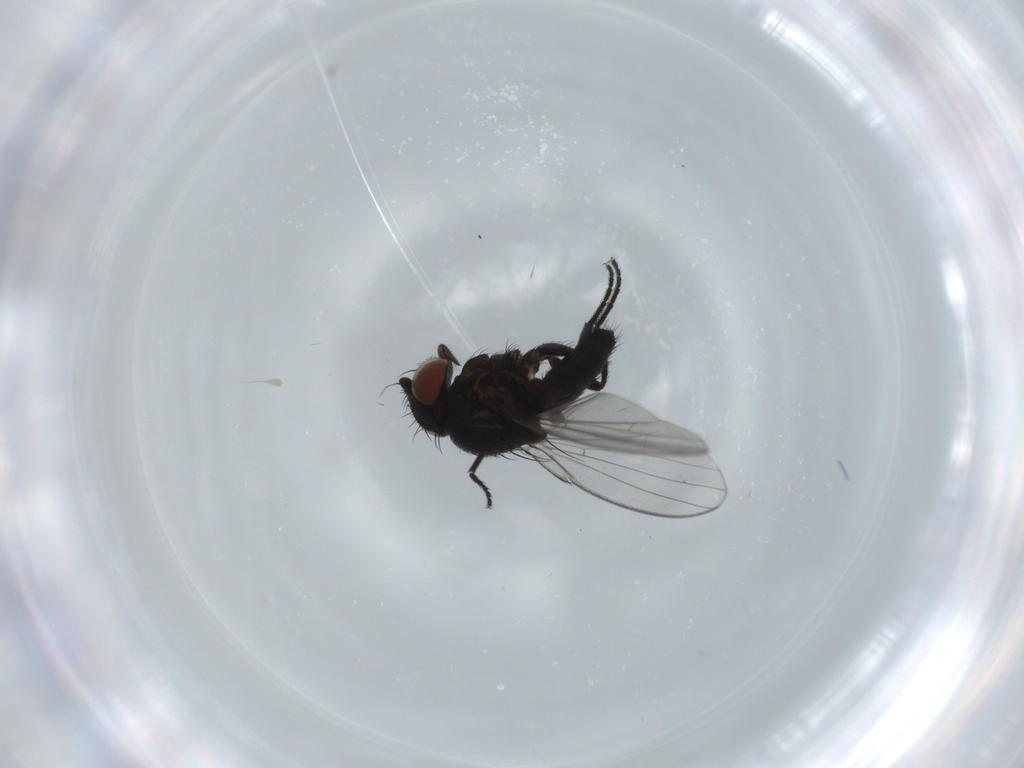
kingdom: Animalia
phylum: Arthropoda
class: Insecta
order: Diptera
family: Milichiidae
